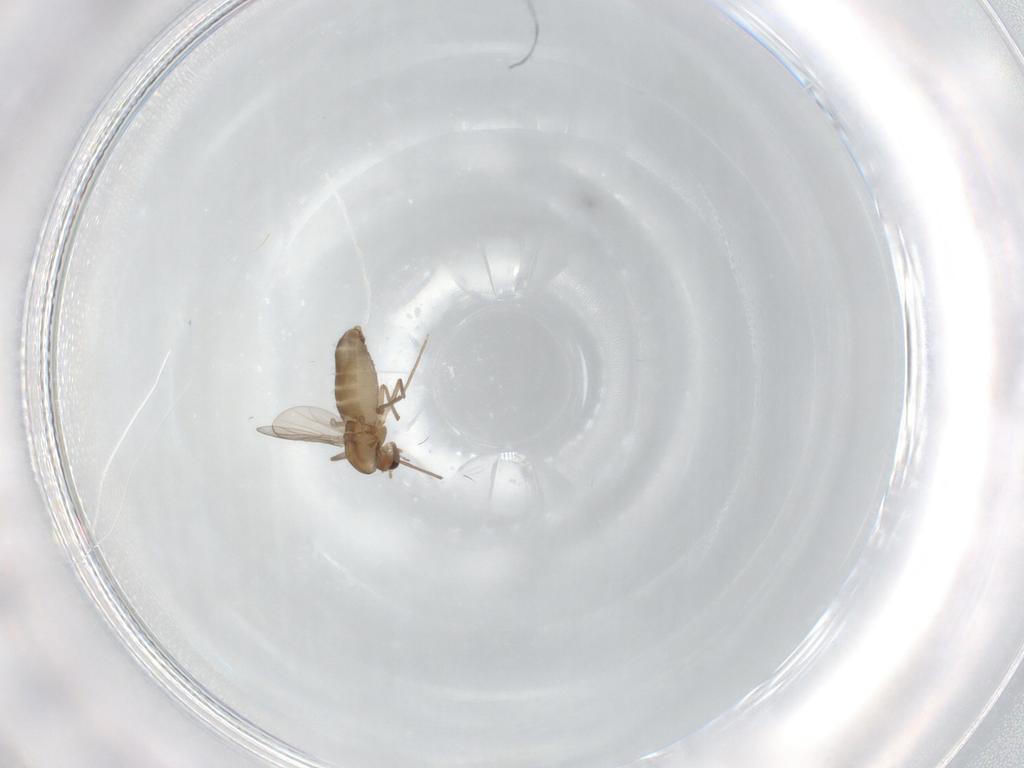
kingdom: Animalia
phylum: Arthropoda
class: Insecta
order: Diptera
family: Chironomidae
